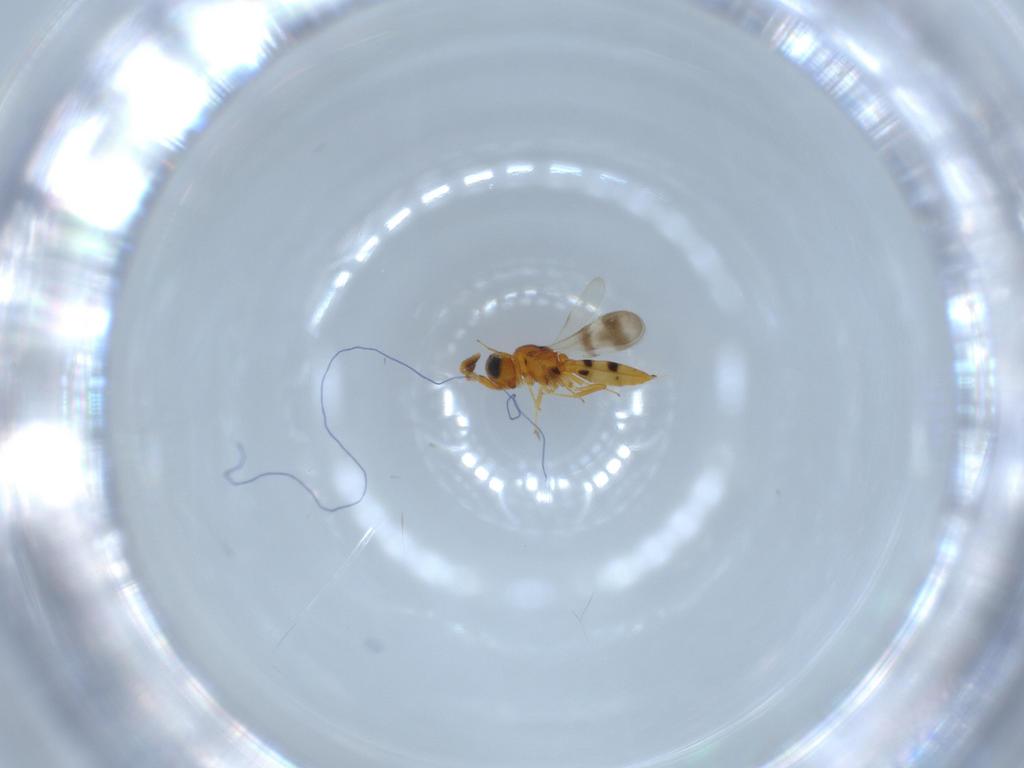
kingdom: Animalia
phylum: Arthropoda
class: Insecta
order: Hymenoptera
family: Scelionidae
